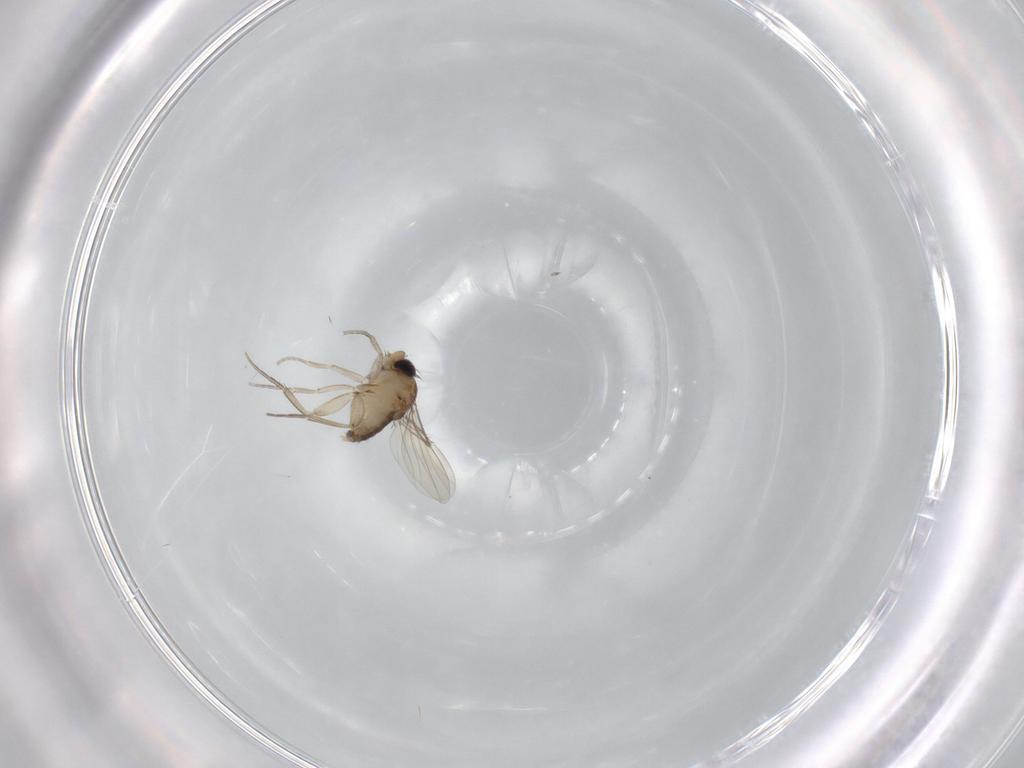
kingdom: Animalia
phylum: Arthropoda
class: Insecta
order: Diptera
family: Phoridae
